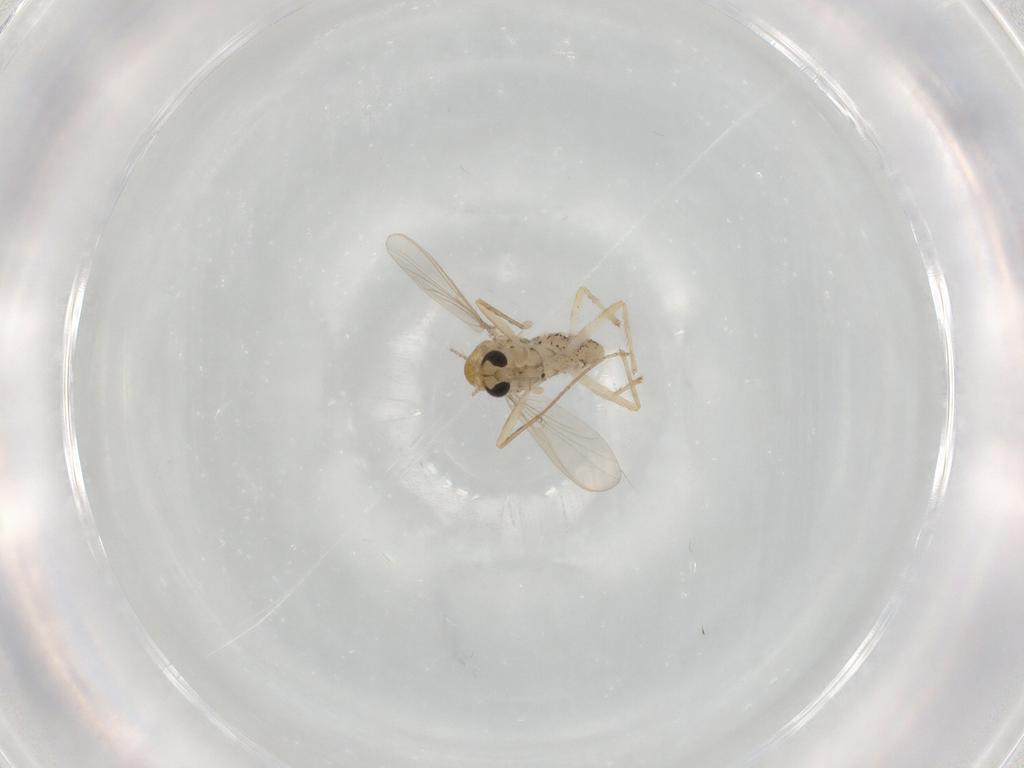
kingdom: Animalia
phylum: Arthropoda
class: Insecta
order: Diptera
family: Chironomidae
